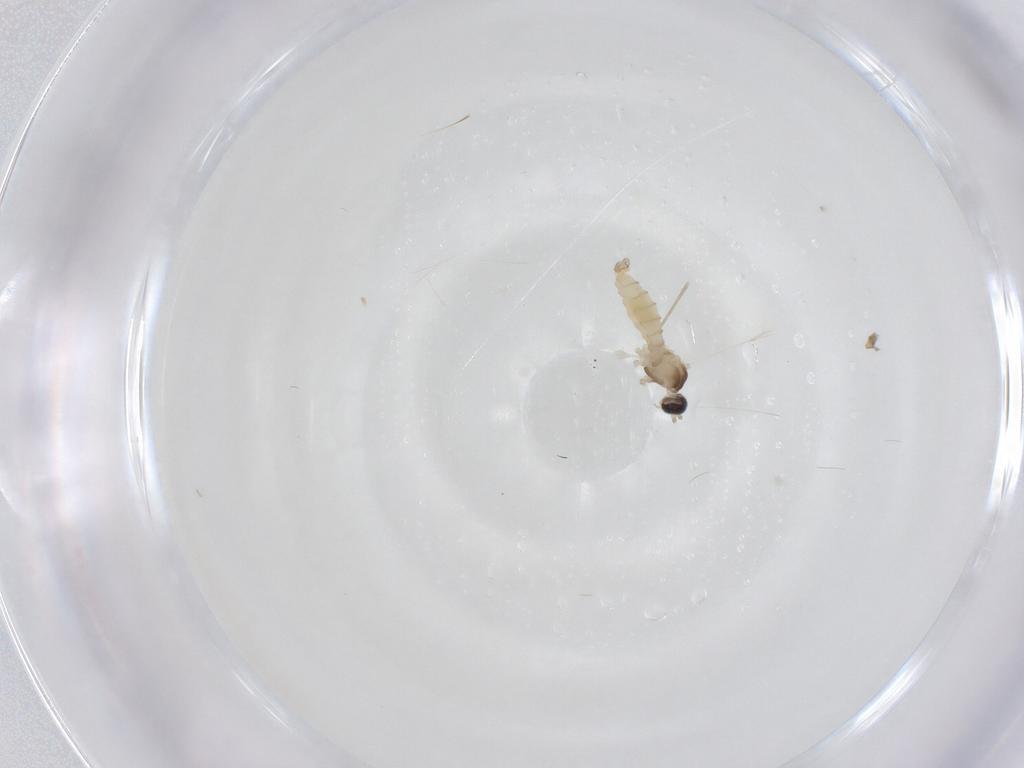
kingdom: Animalia
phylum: Arthropoda
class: Insecta
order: Diptera
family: Cecidomyiidae
